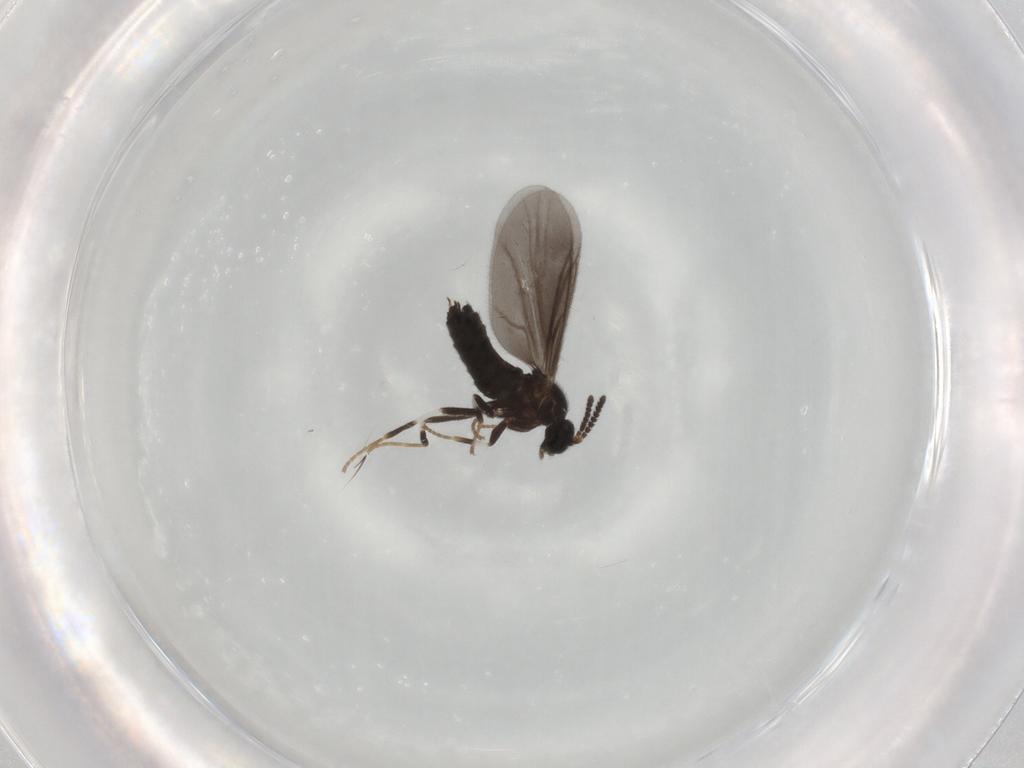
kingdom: Animalia
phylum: Arthropoda
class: Insecta
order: Diptera
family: Scatopsidae
